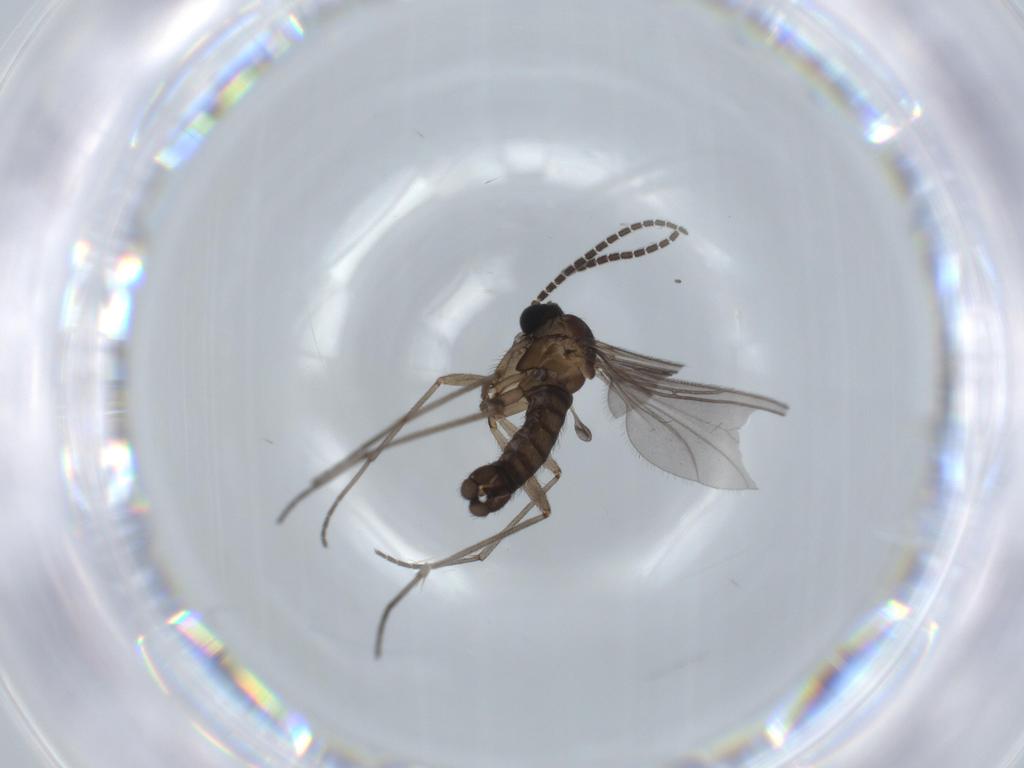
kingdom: Animalia
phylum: Arthropoda
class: Insecta
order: Diptera
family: Sciaridae
